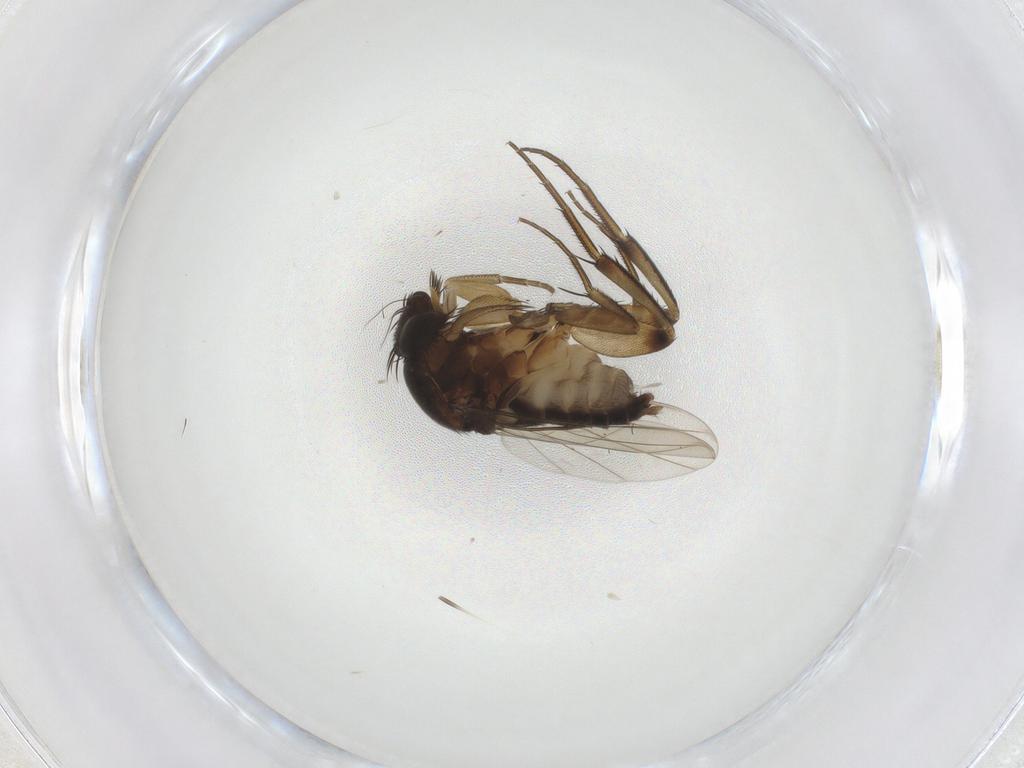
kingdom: Animalia
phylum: Arthropoda
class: Insecta
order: Diptera
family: Phoridae
